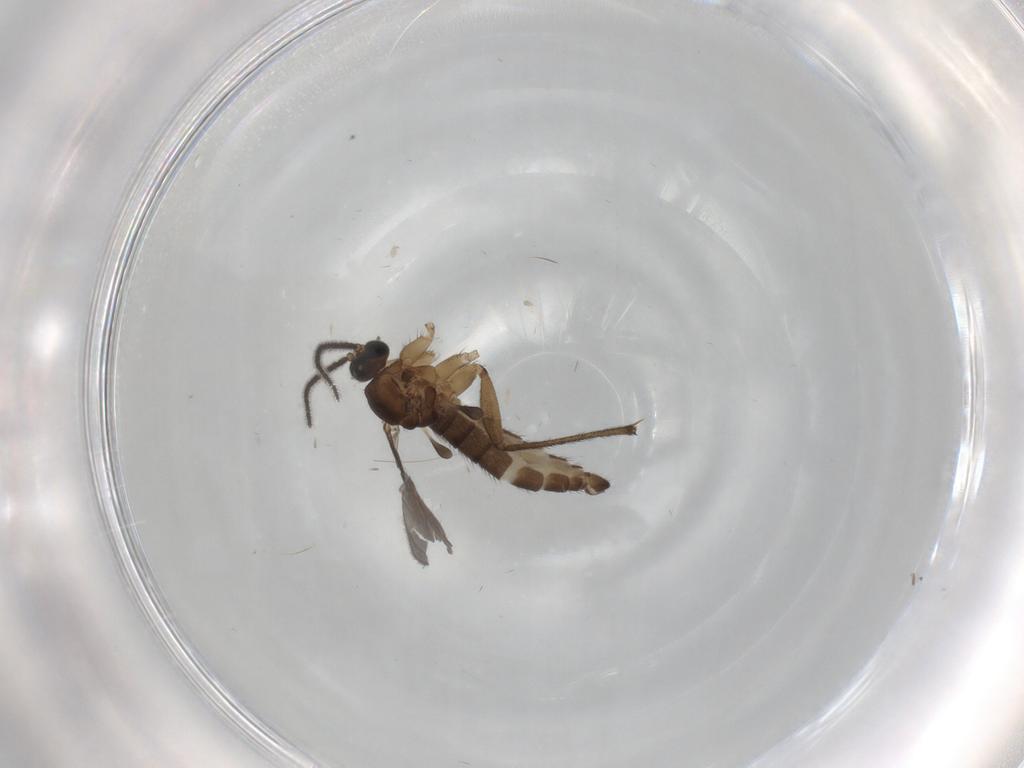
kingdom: Animalia
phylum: Arthropoda
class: Insecta
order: Diptera
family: Sciaridae
